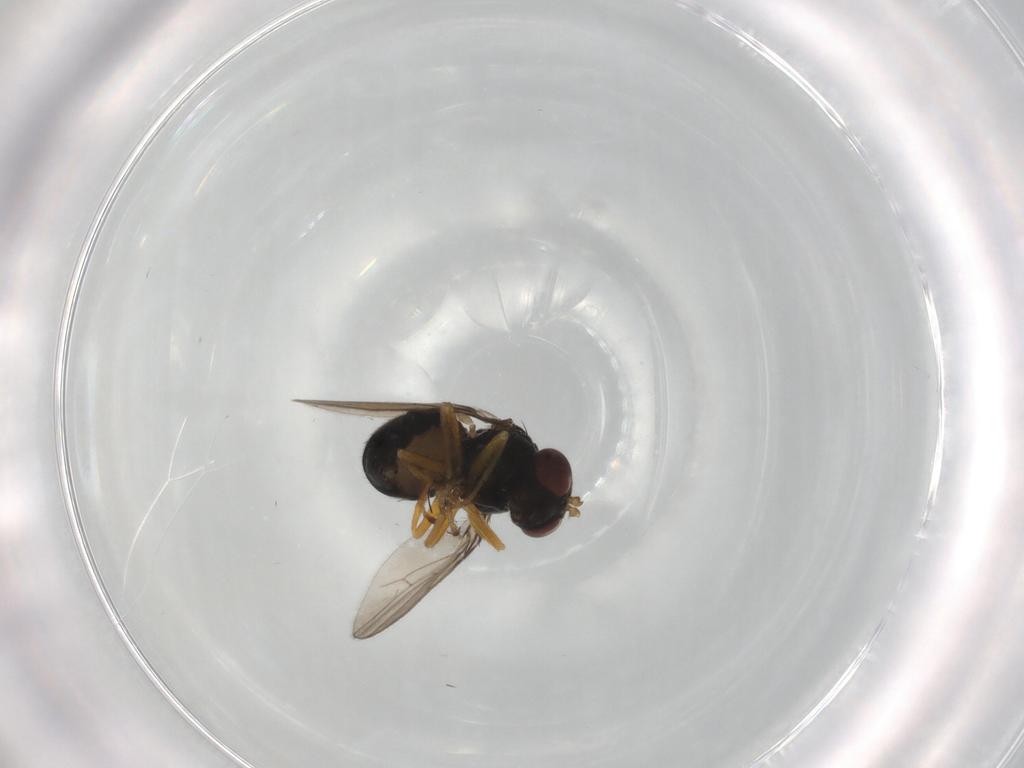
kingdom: Animalia
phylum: Arthropoda
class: Insecta
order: Diptera
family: Ephydridae
